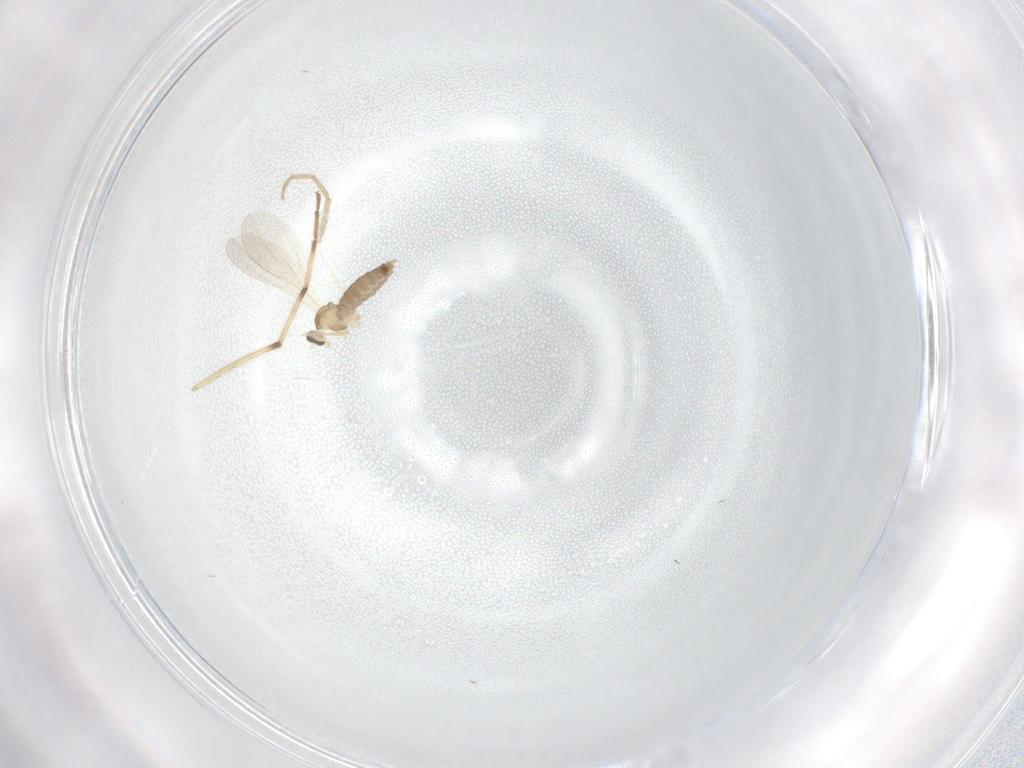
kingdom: Animalia
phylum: Arthropoda
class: Insecta
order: Diptera
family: Chironomidae
